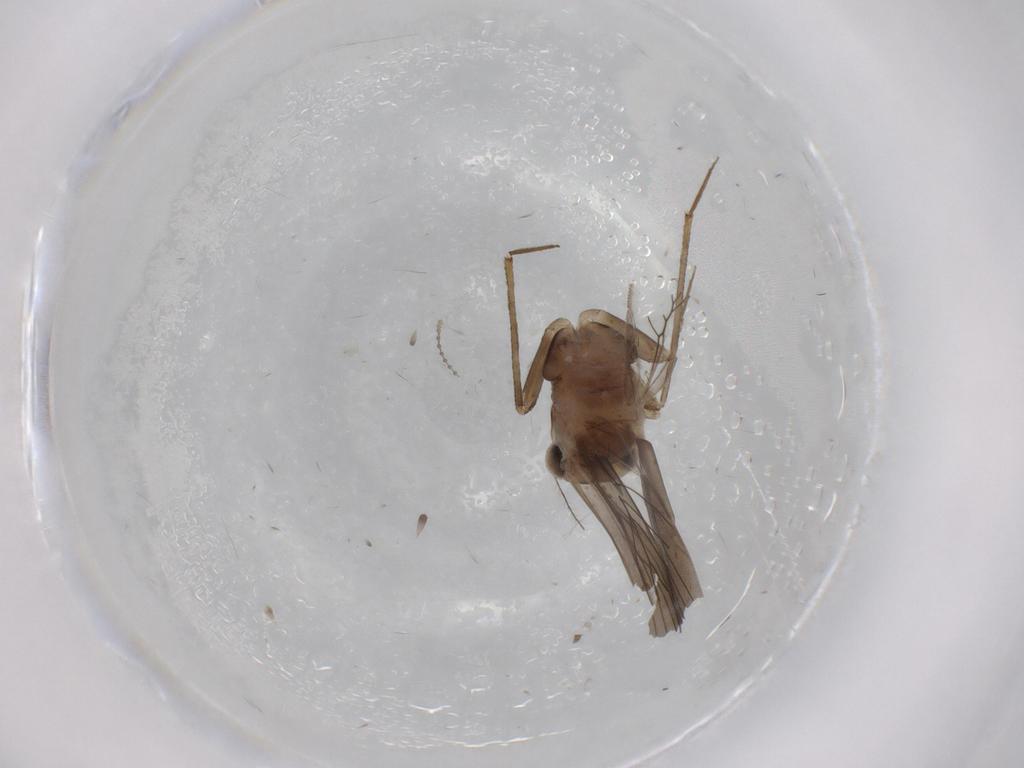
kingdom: Animalia
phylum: Arthropoda
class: Insecta
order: Psocodea
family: Lepidopsocidae
